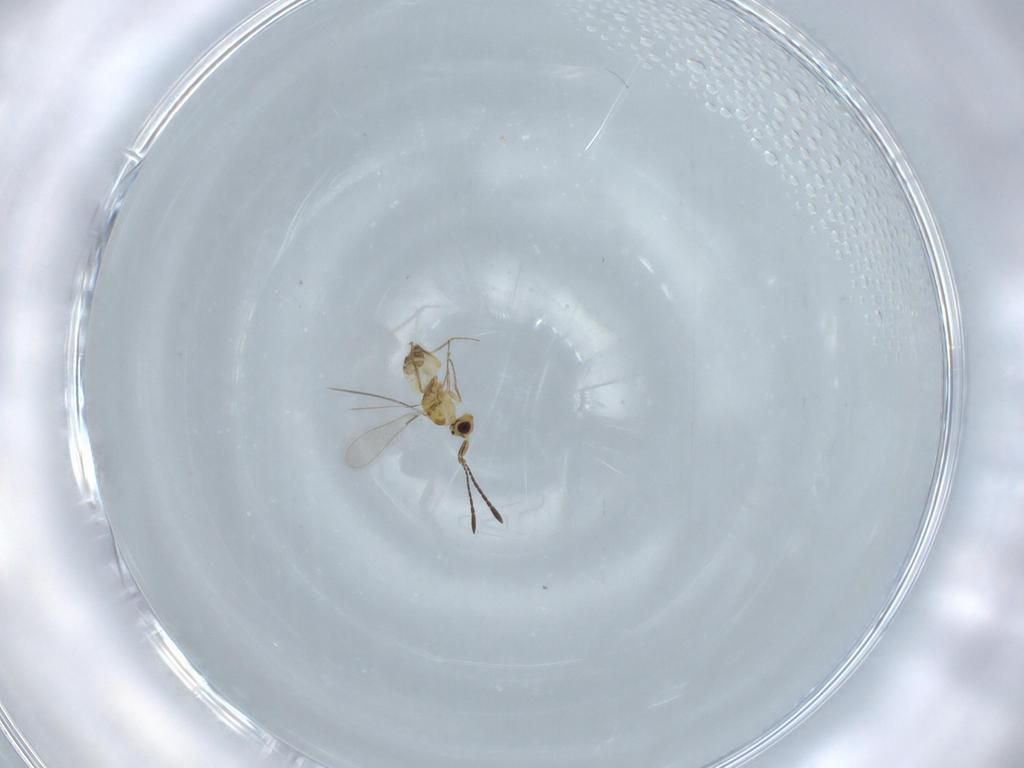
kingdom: Animalia
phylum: Arthropoda
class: Insecta
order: Hymenoptera
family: Mymaridae
